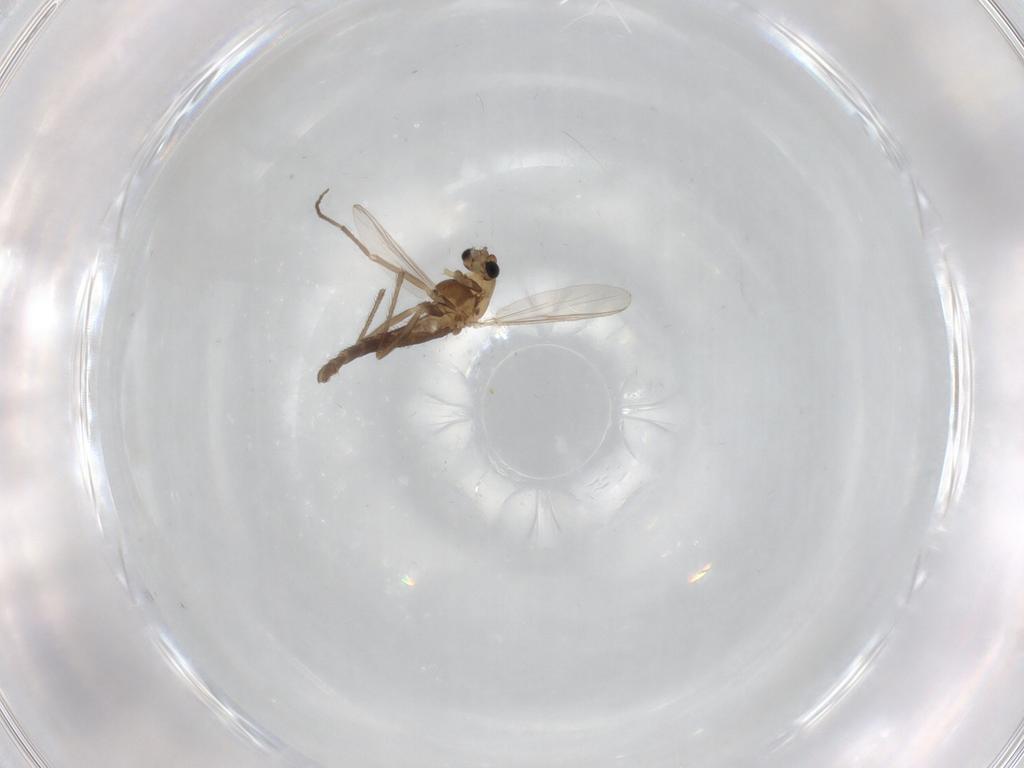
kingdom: Animalia
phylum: Arthropoda
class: Insecta
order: Diptera
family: Chironomidae
